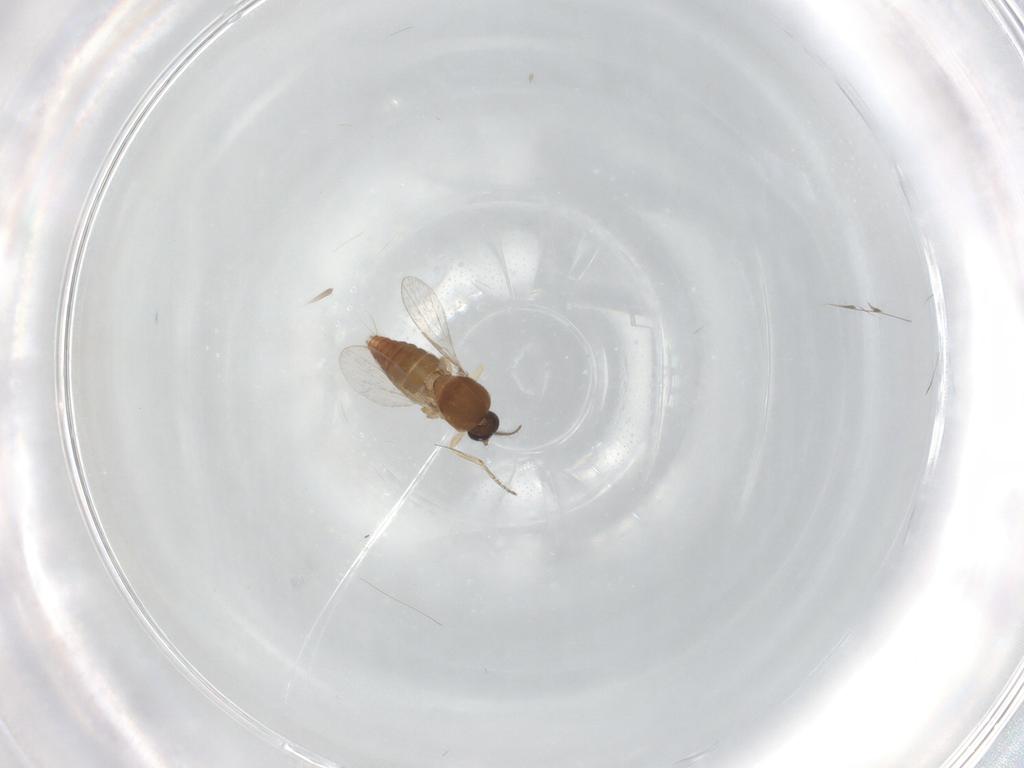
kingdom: Animalia
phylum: Arthropoda
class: Insecta
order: Diptera
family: Ceratopogonidae
